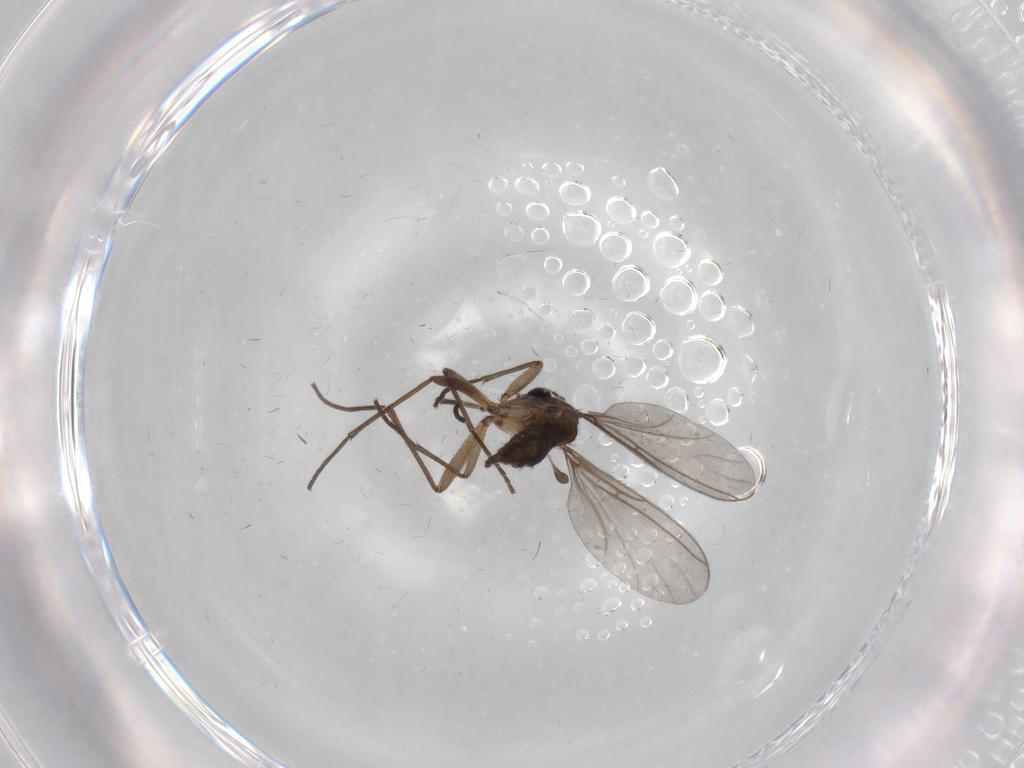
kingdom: Animalia
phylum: Arthropoda
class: Insecta
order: Diptera
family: Sciaridae
